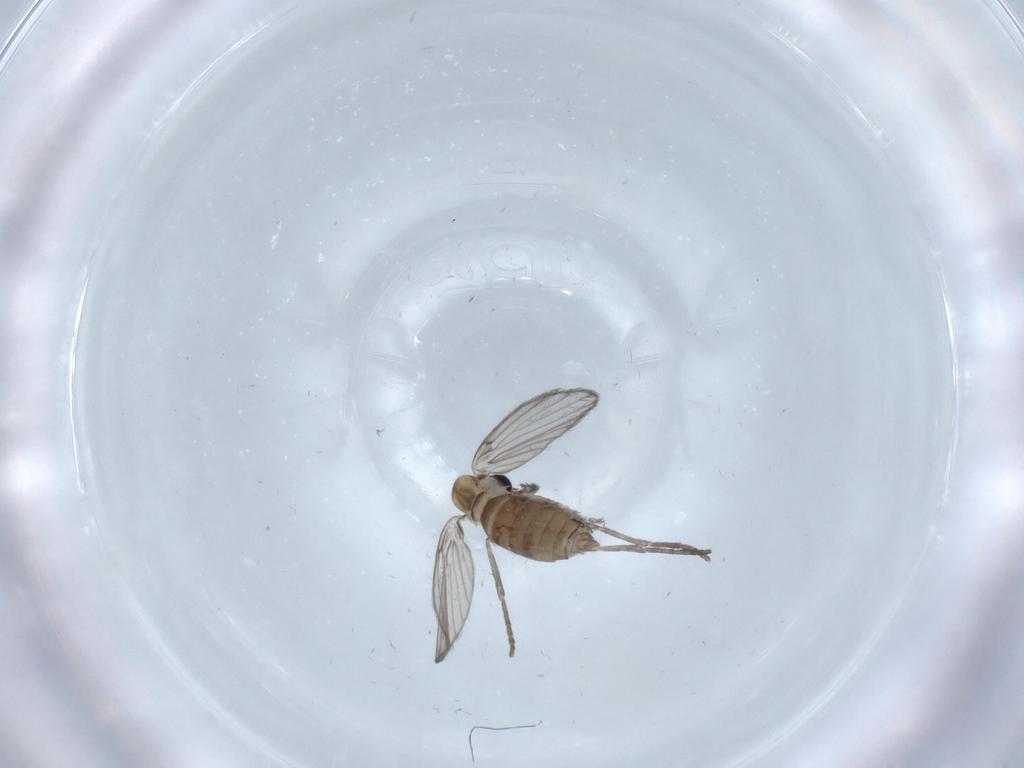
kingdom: Animalia
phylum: Arthropoda
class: Insecta
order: Diptera
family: Psychodidae
